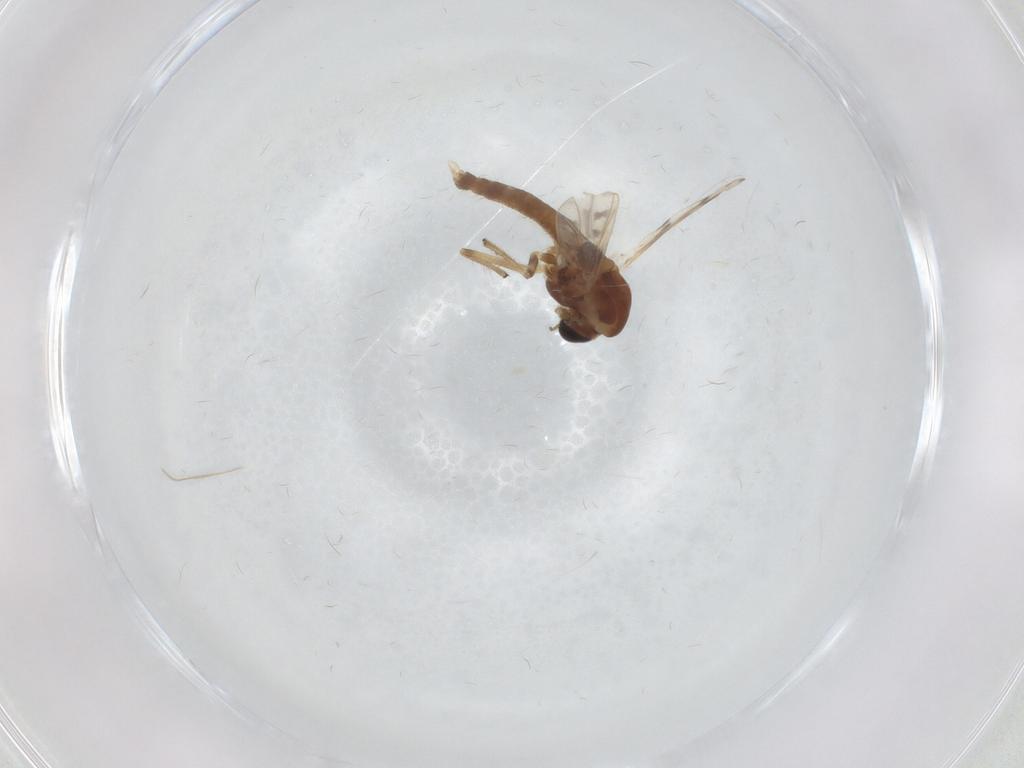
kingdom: Animalia
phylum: Arthropoda
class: Insecta
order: Diptera
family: Chironomidae
